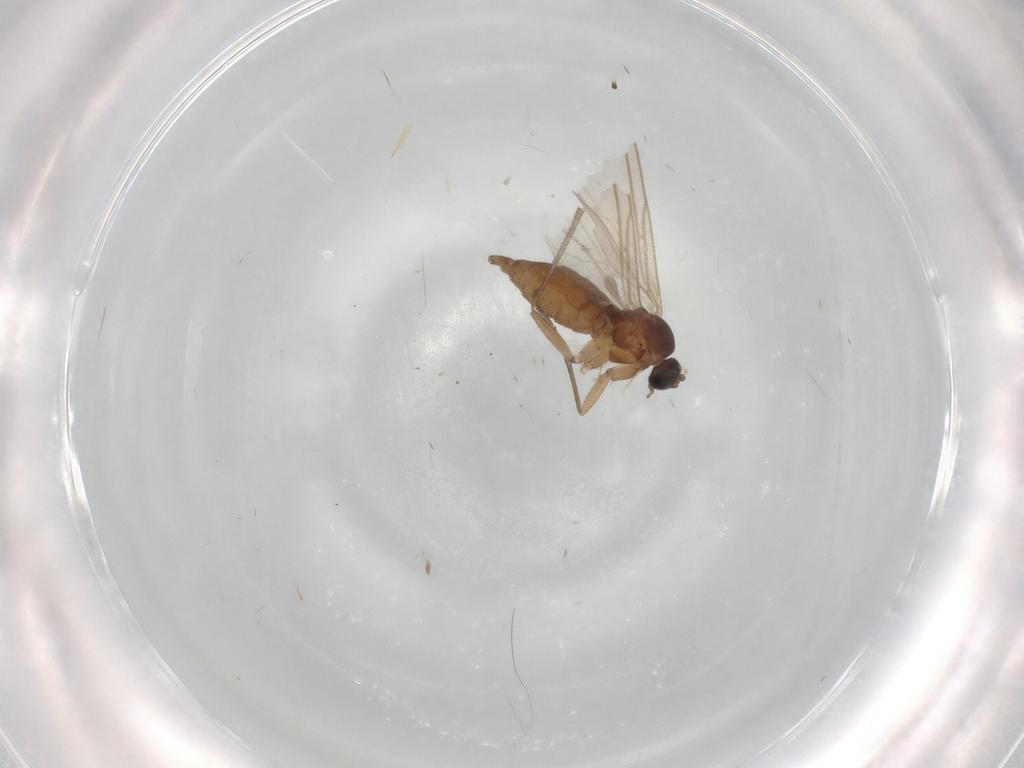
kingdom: Animalia
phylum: Arthropoda
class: Insecta
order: Diptera
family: Sciaridae
